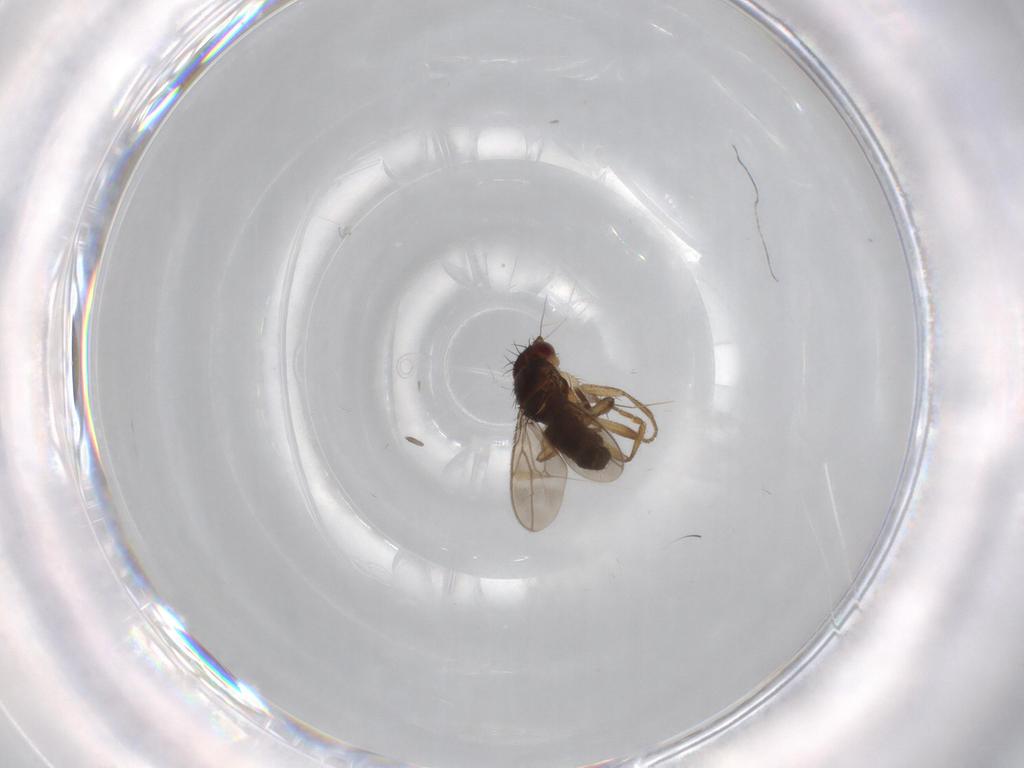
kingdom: Animalia
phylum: Arthropoda
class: Insecta
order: Diptera
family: Sphaeroceridae
